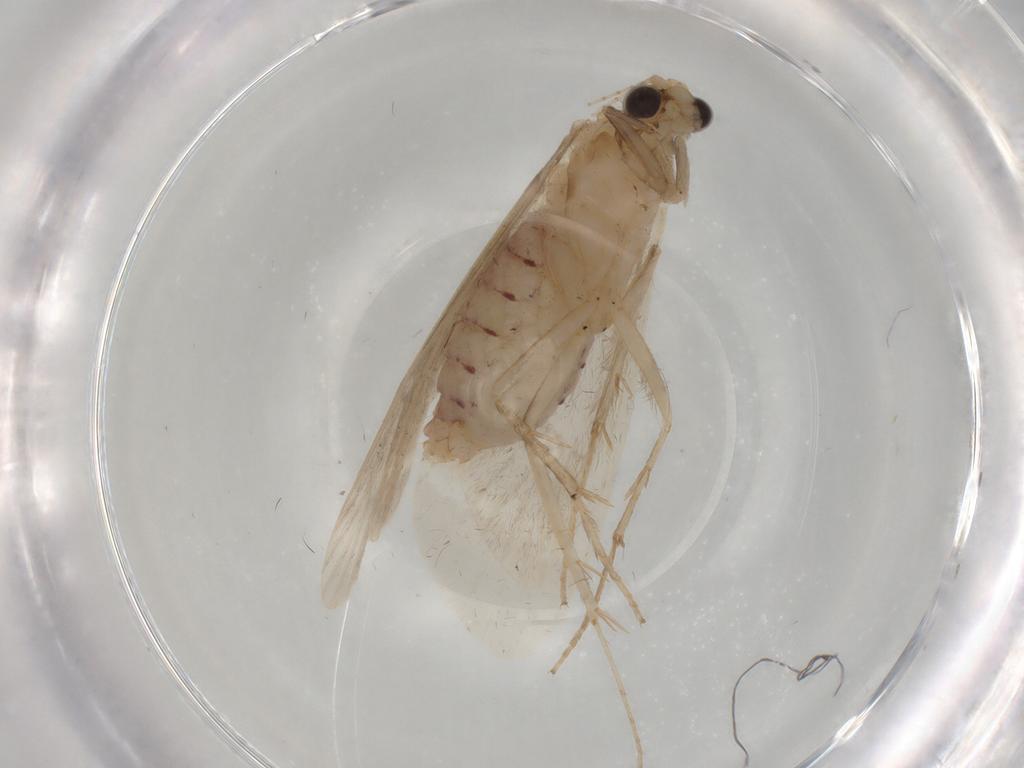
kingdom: Animalia
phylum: Arthropoda
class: Insecta
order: Trichoptera
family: Hydropsychidae
